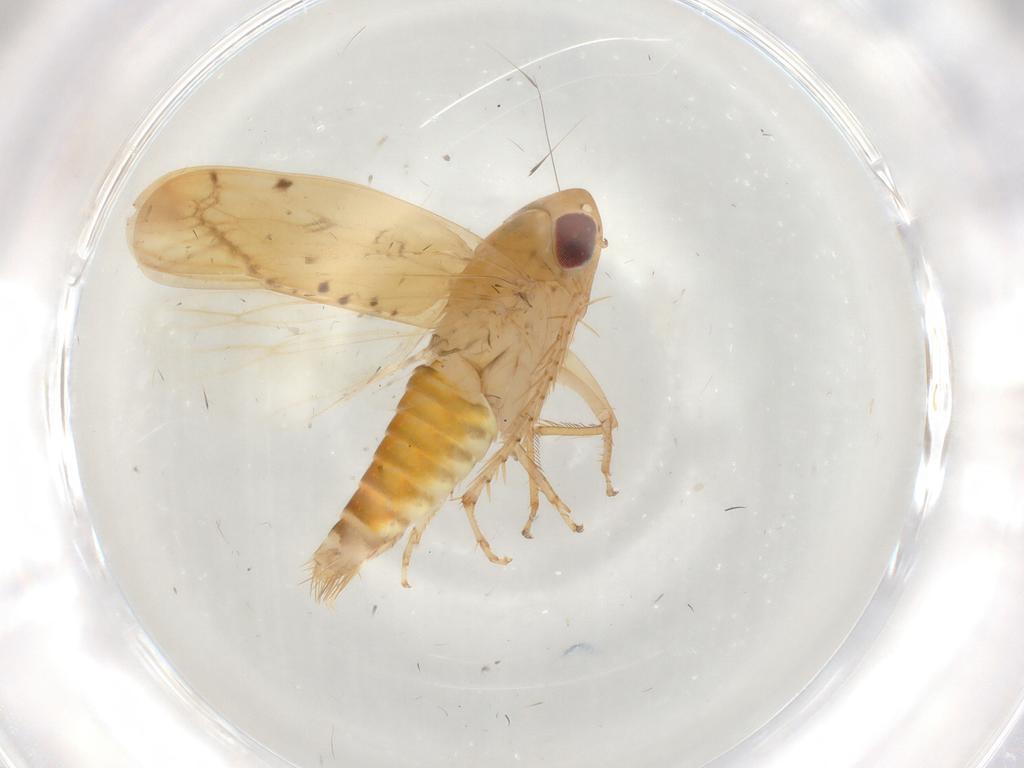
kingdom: Animalia
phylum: Arthropoda
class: Insecta
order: Hemiptera
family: Cicadellidae
